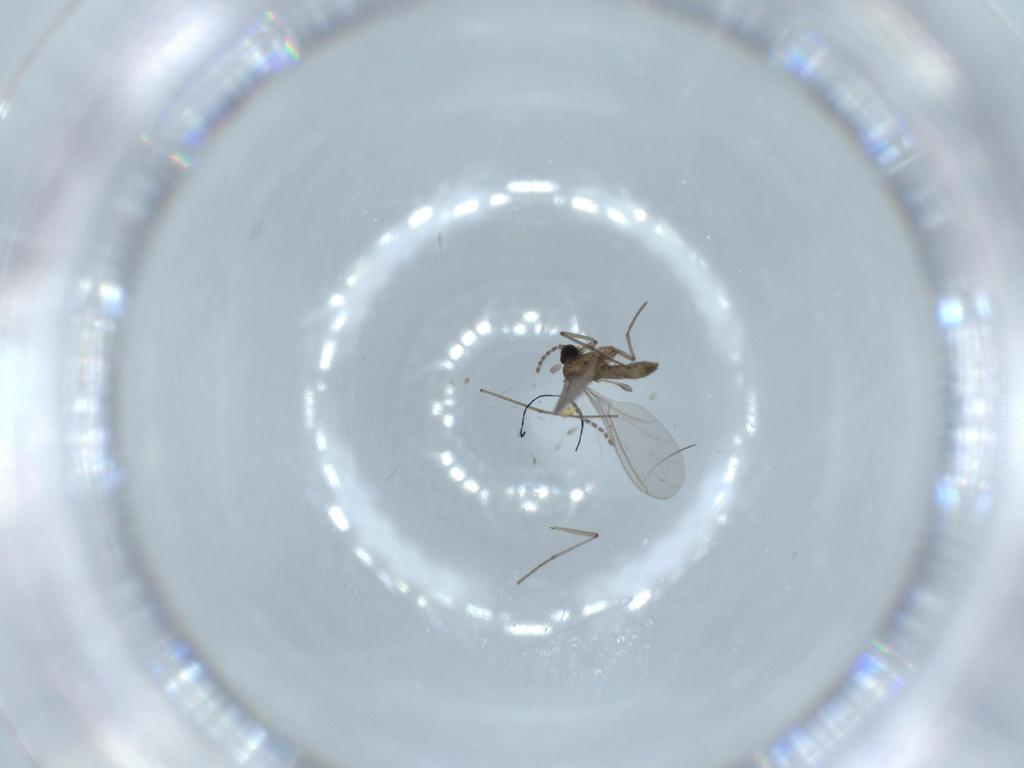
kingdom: Animalia
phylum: Arthropoda
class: Insecta
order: Diptera
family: Sciaridae
